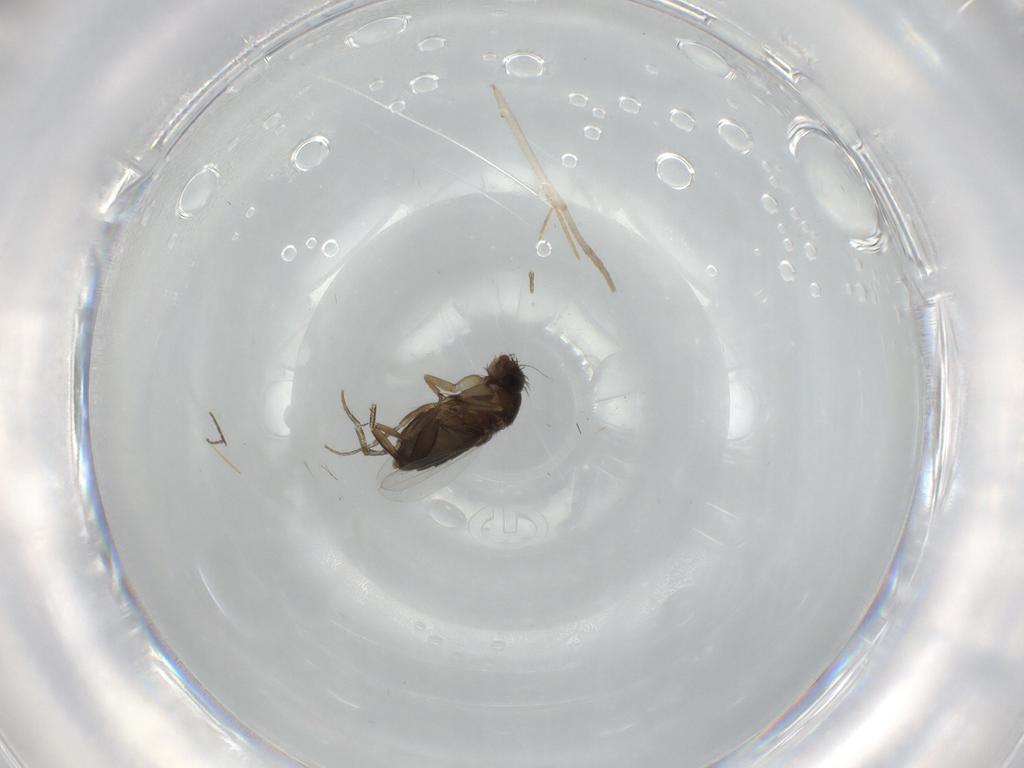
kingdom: Animalia
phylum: Arthropoda
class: Insecta
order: Diptera
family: Phoridae
